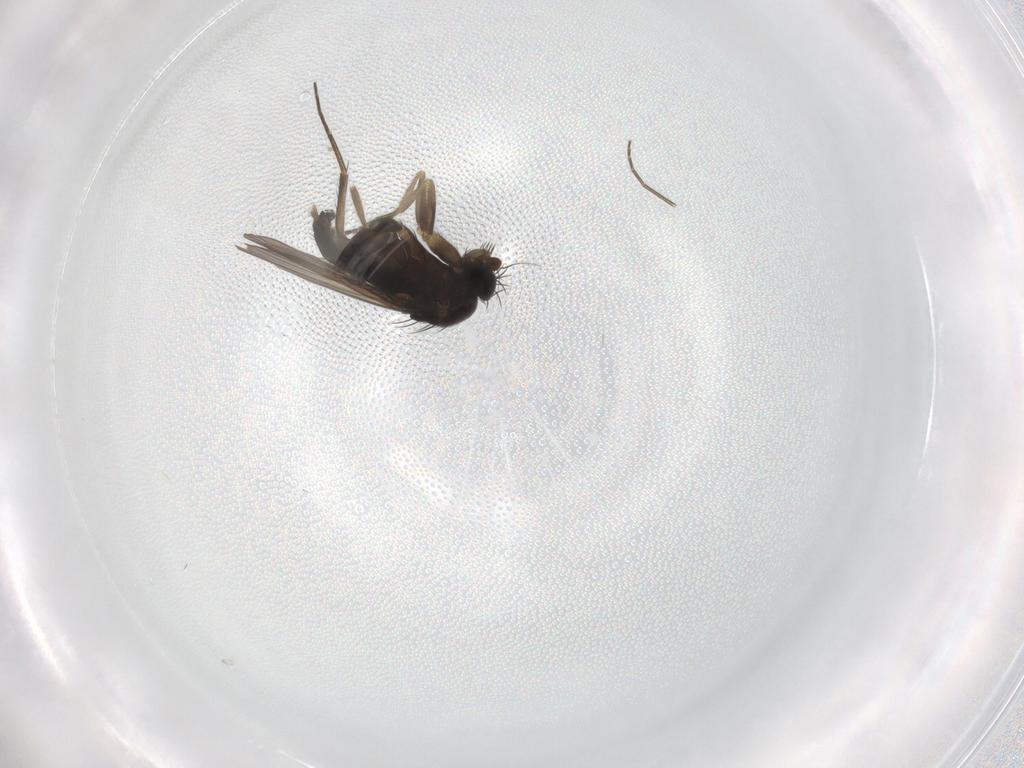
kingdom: Animalia
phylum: Arthropoda
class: Insecta
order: Diptera
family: Phoridae
